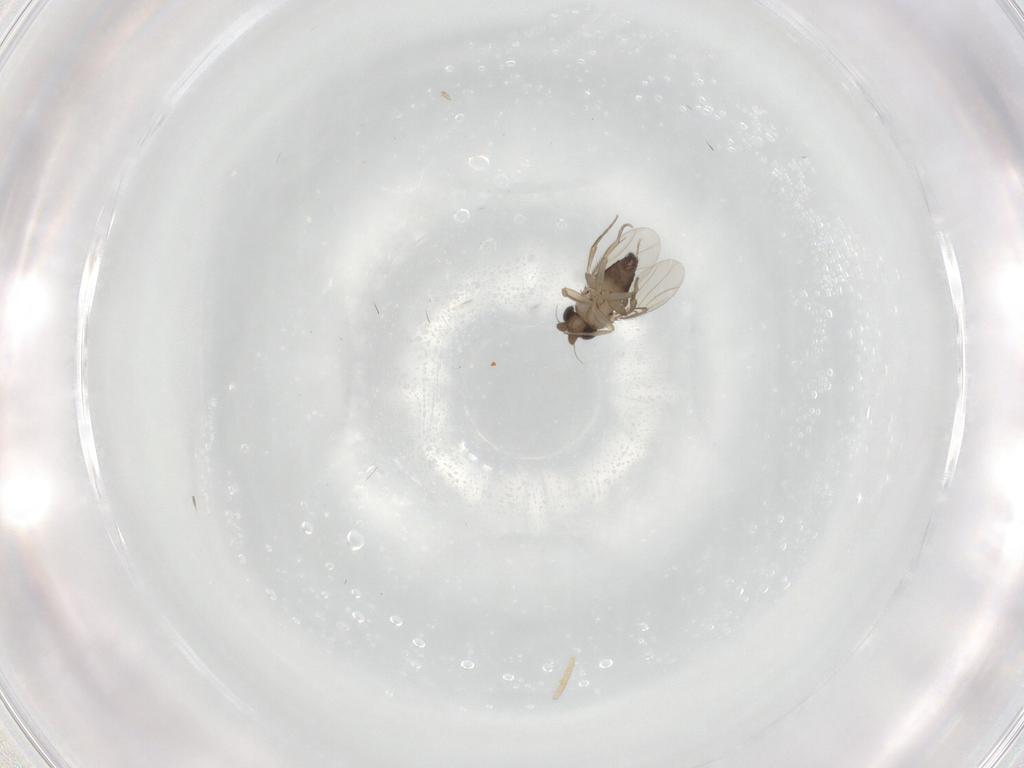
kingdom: Animalia
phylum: Arthropoda
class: Insecta
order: Diptera
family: Phoridae
